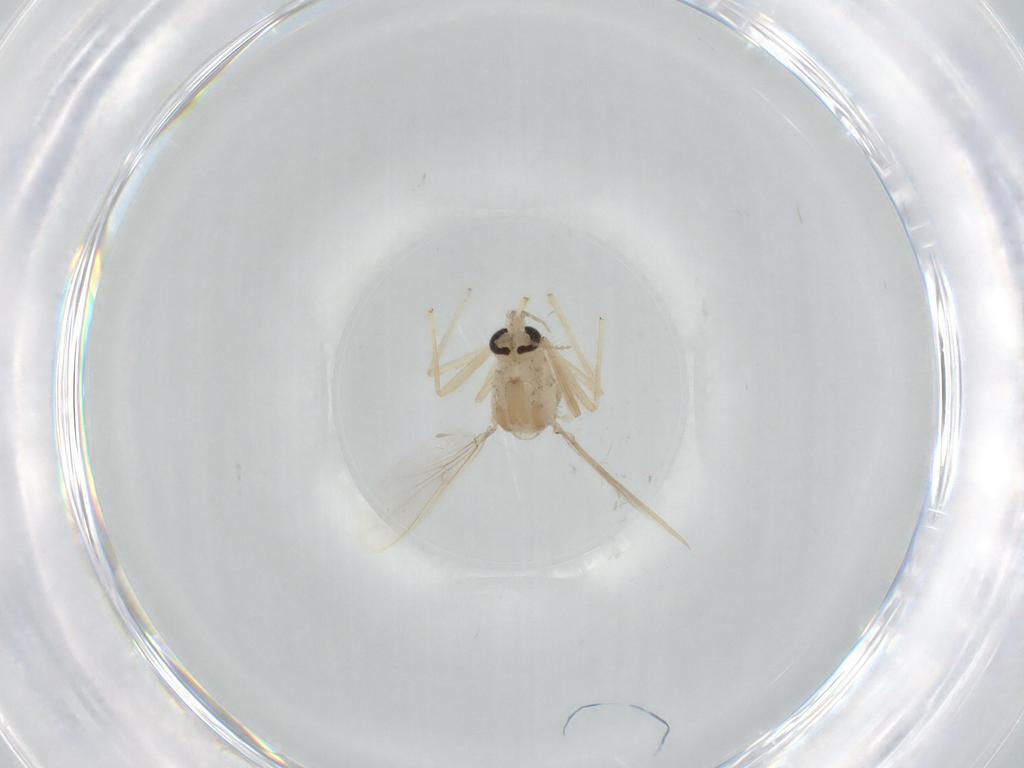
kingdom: Animalia
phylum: Arthropoda
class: Insecta
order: Diptera
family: Chironomidae
